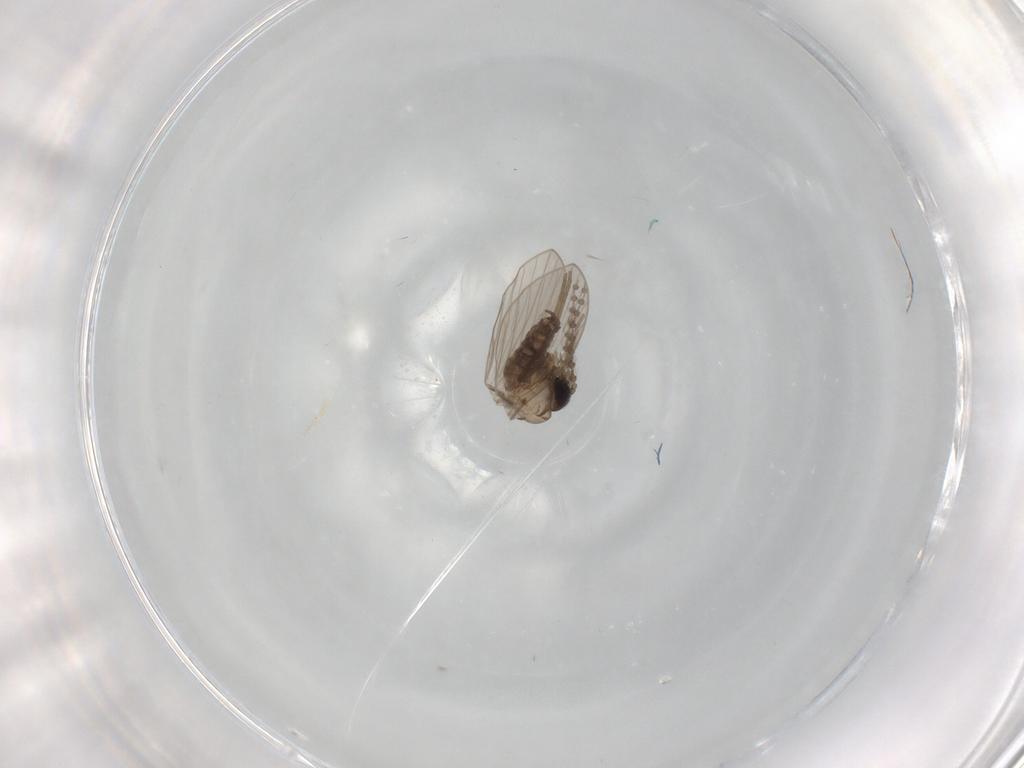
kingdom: Animalia
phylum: Arthropoda
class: Insecta
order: Diptera
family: Psychodidae
